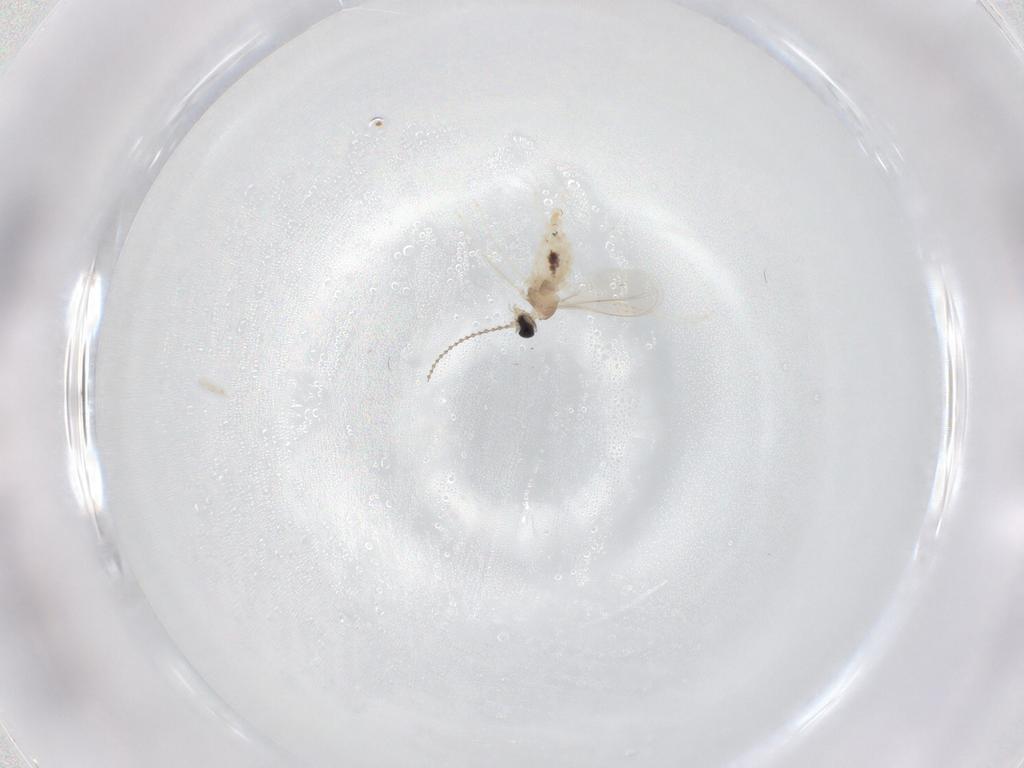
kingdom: Animalia
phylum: Arthropoda
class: Insecta
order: Diptera
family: Cecidomyiidae
